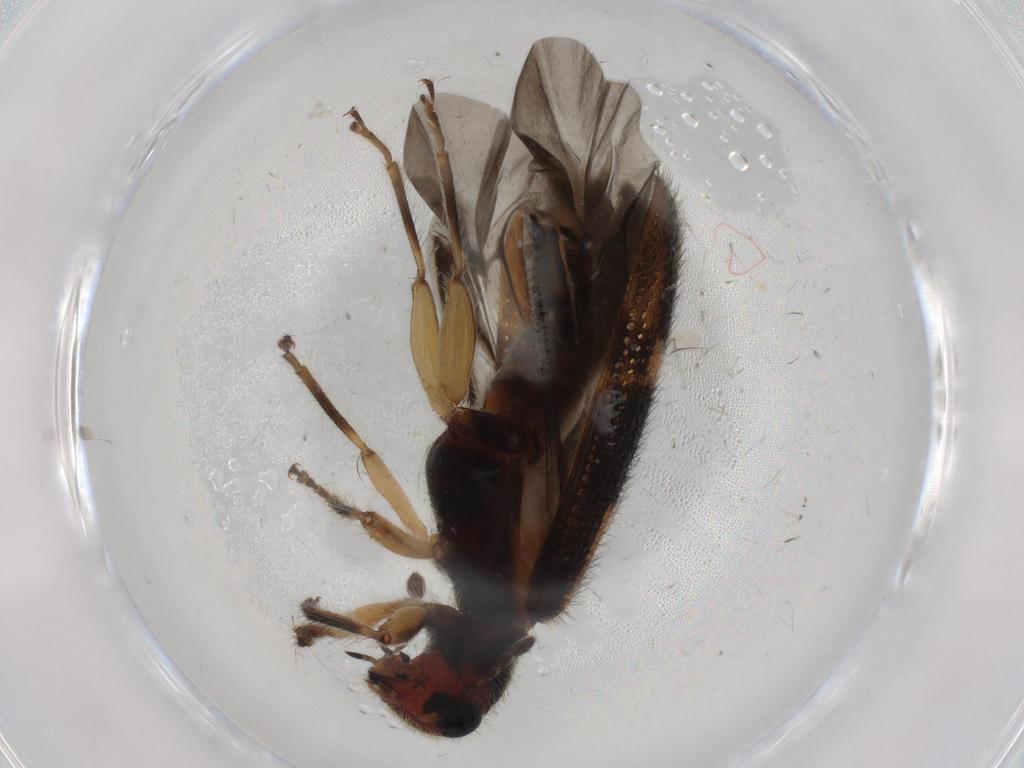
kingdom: Animalia
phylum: Arthropoda
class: Insecta
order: Coleoptera
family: Cleridae
